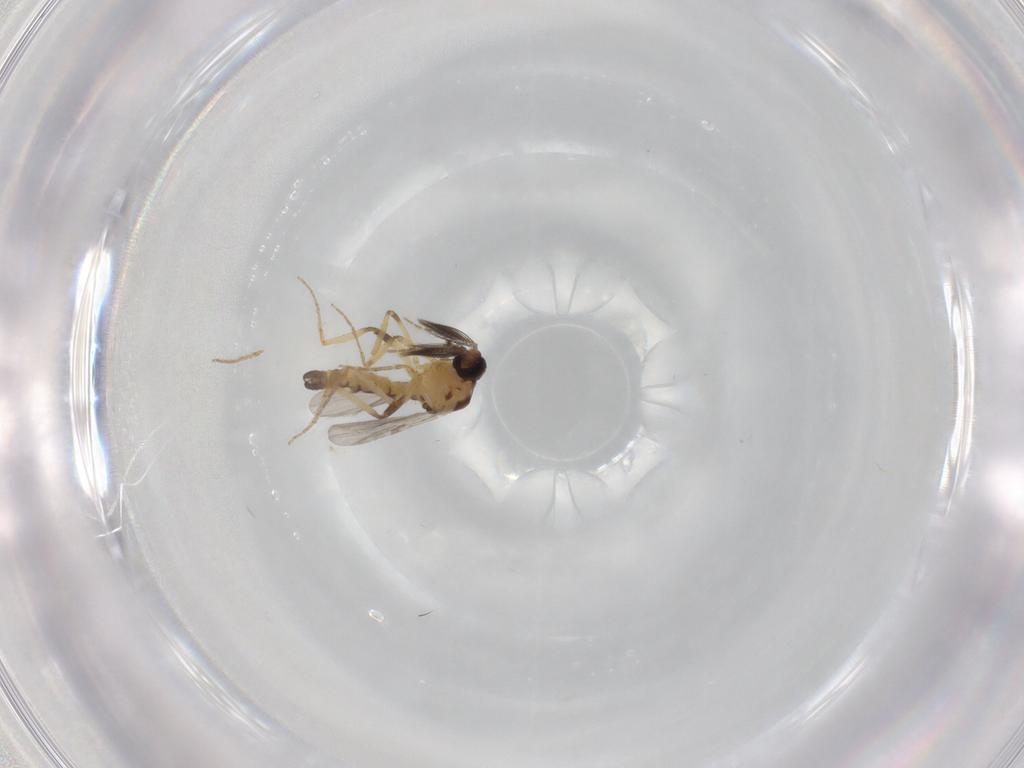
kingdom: Animalia
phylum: Arthropoda
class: Insecta
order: Diptera
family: Ceratopogonidae
